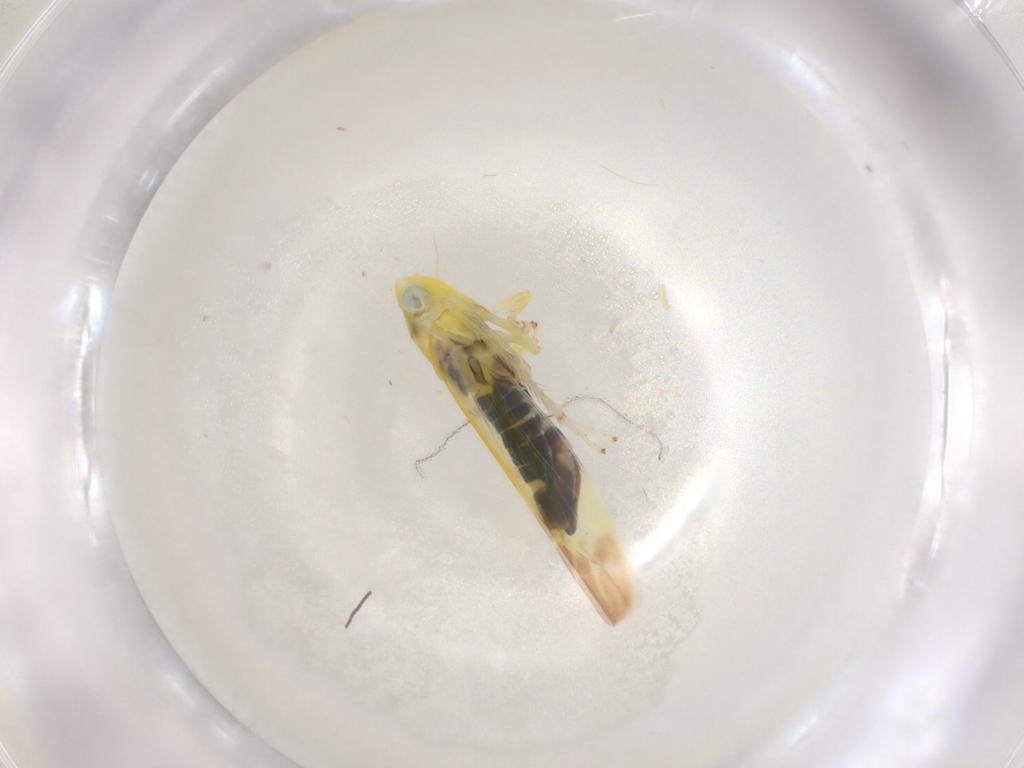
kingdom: Animalia
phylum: Arthropoda
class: Insecta
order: Hemiptera
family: Cicadellidae
